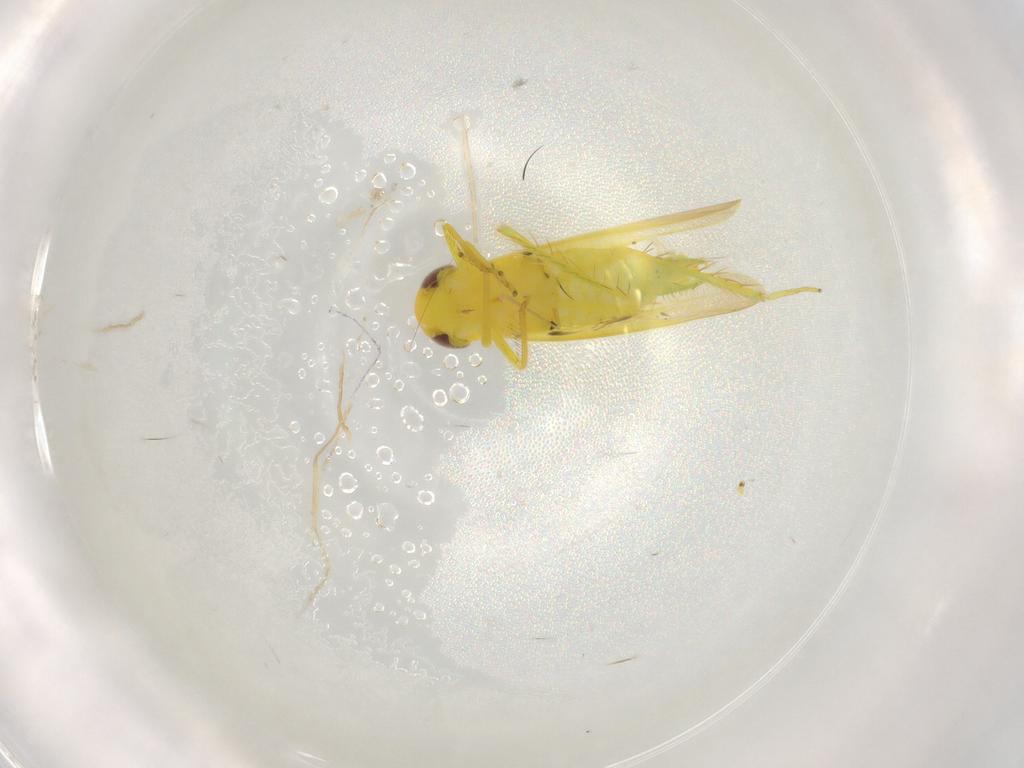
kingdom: Animalia
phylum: Arthropoda
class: Insecta
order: Hemiptera
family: Cicadellidae
